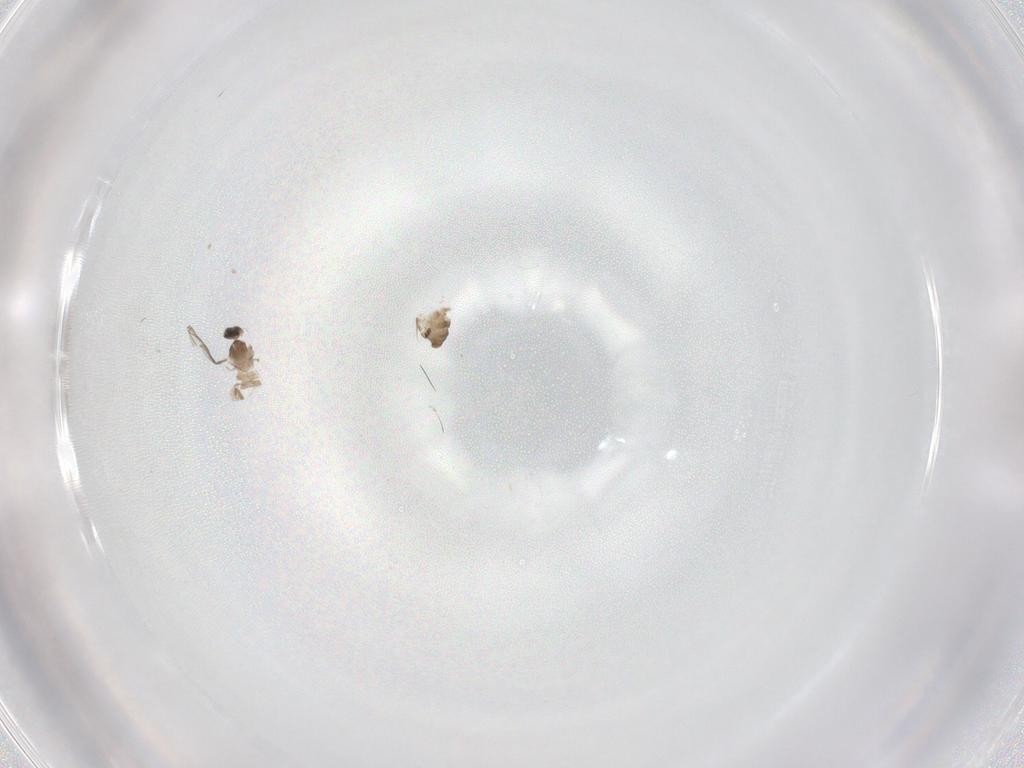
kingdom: Animalia
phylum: Arthropoda
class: Insecta
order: Diptera
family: Cecidomyiidae
